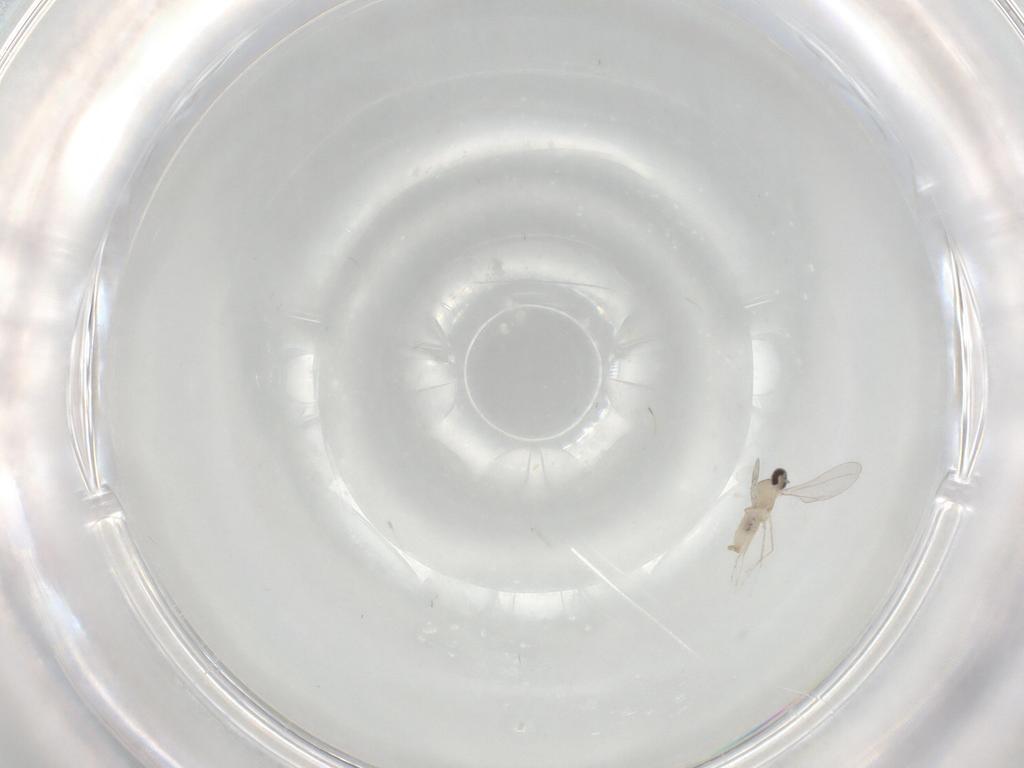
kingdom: Animalia
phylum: Arthropoda
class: Insecta
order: Diptera
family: Cecidomyiidae
